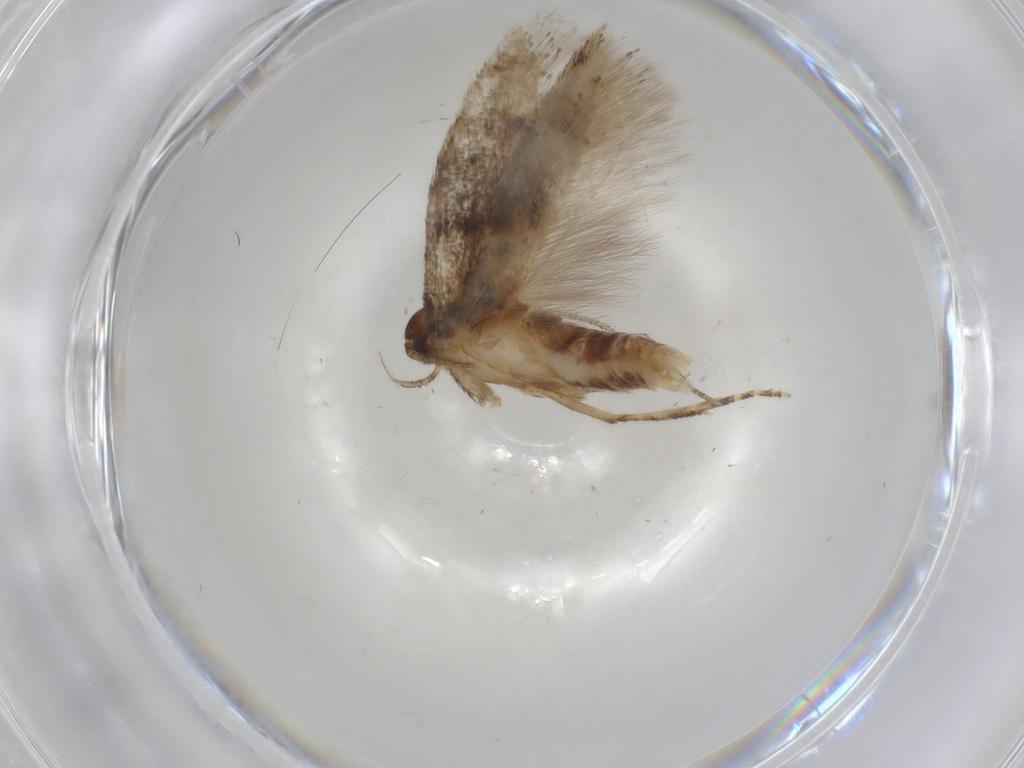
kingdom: Animalia
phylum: Arthropoda
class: Insecta
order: Lepidoptera
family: Gelechiidae
